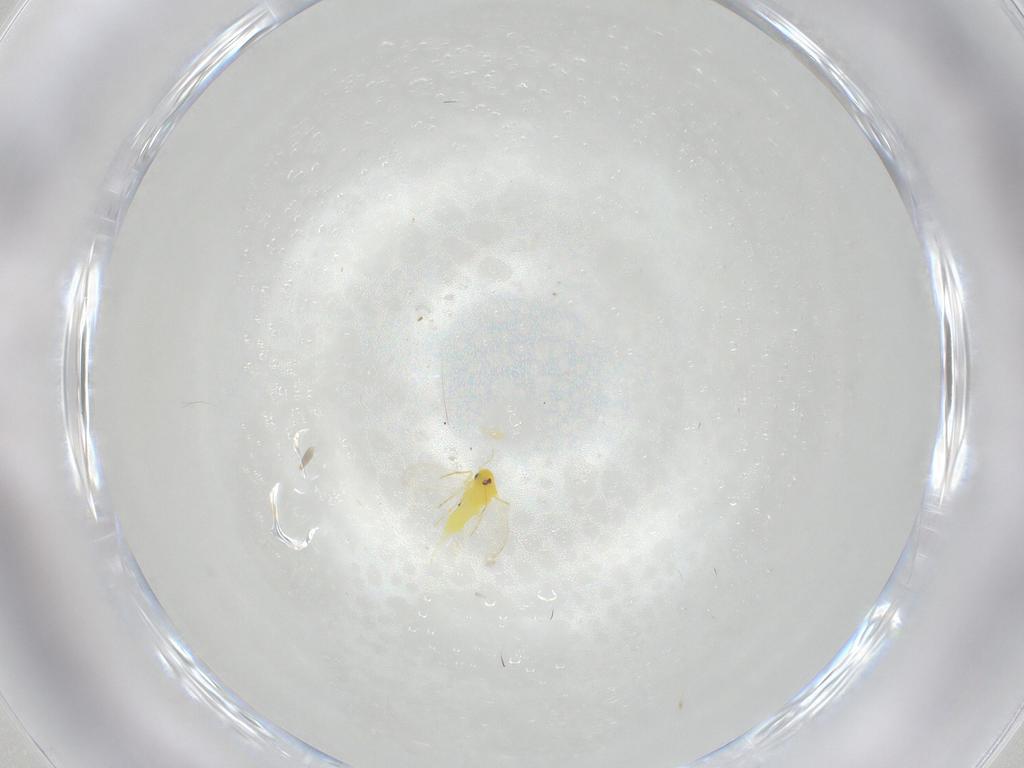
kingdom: Animalia
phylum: Arthropoda
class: Insecta
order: Hemiptera
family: Aleyrodidae
